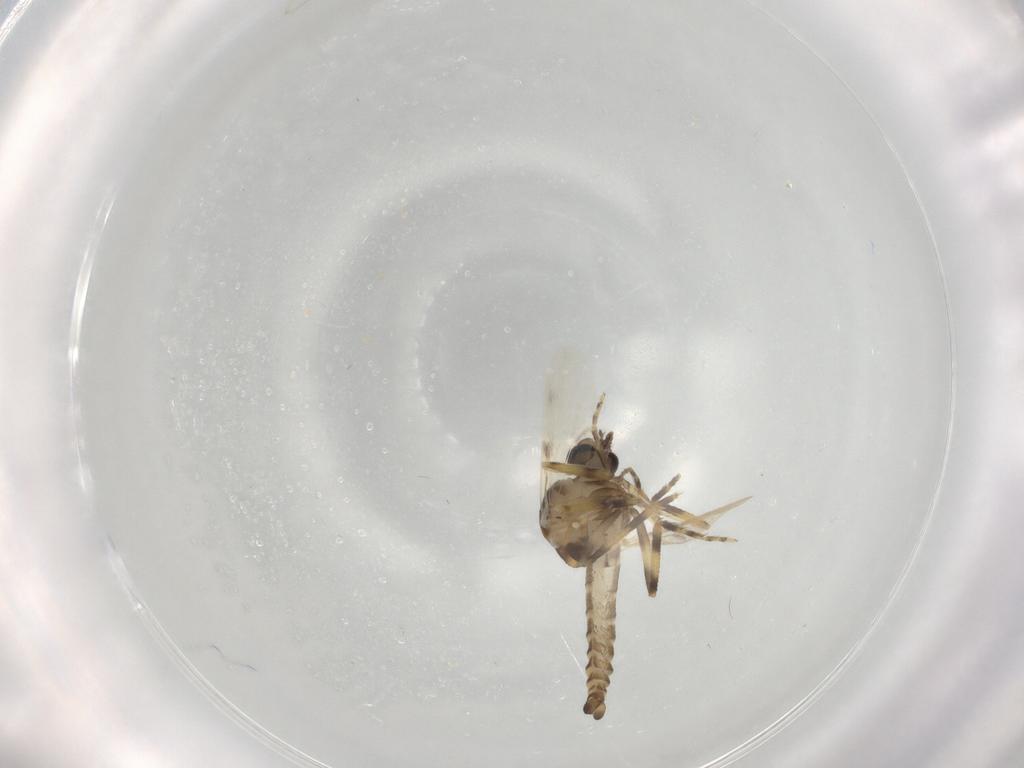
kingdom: Animalia
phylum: Arthropoda
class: Insecta
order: Diptera
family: Ceratopogonidae
